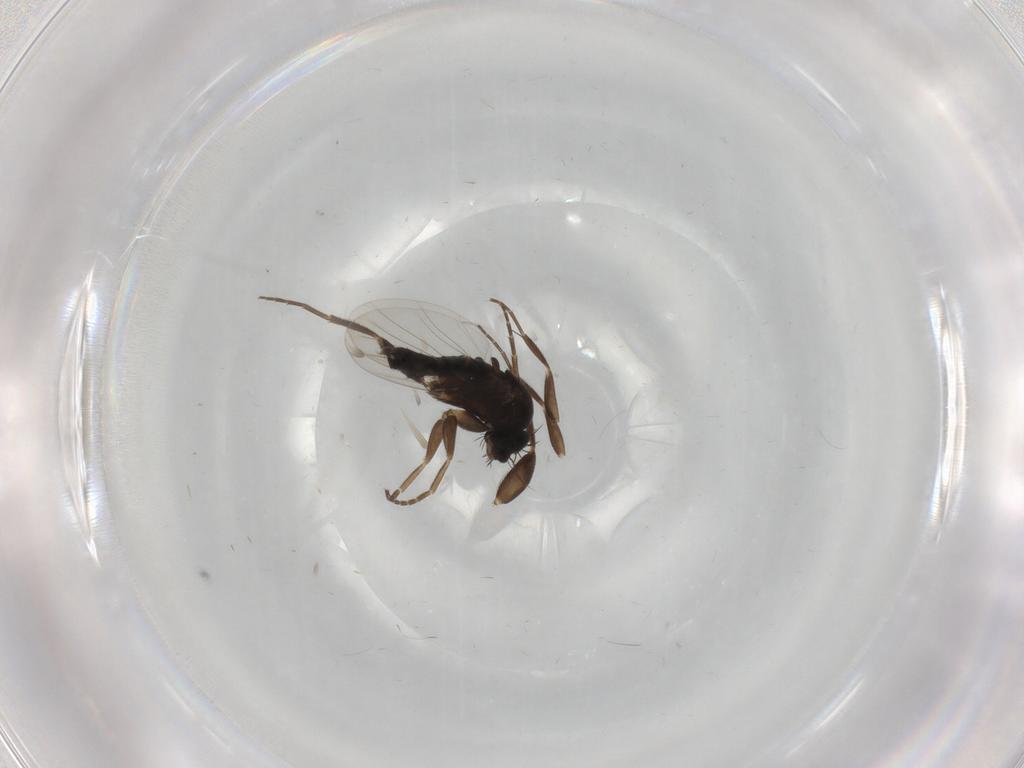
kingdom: Animalia
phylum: Arthropoda
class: Insecta
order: Diptera
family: Phoridae
